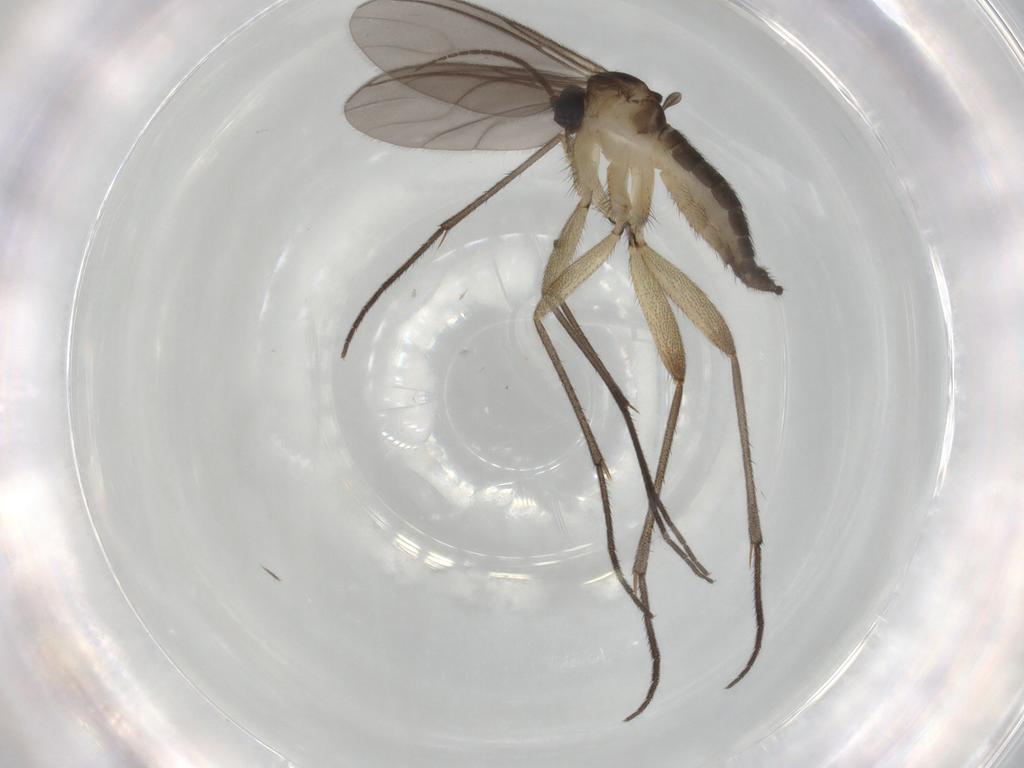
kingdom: Animalia
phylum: Arthropoda
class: Insecta
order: Diptera
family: Sciaridae
